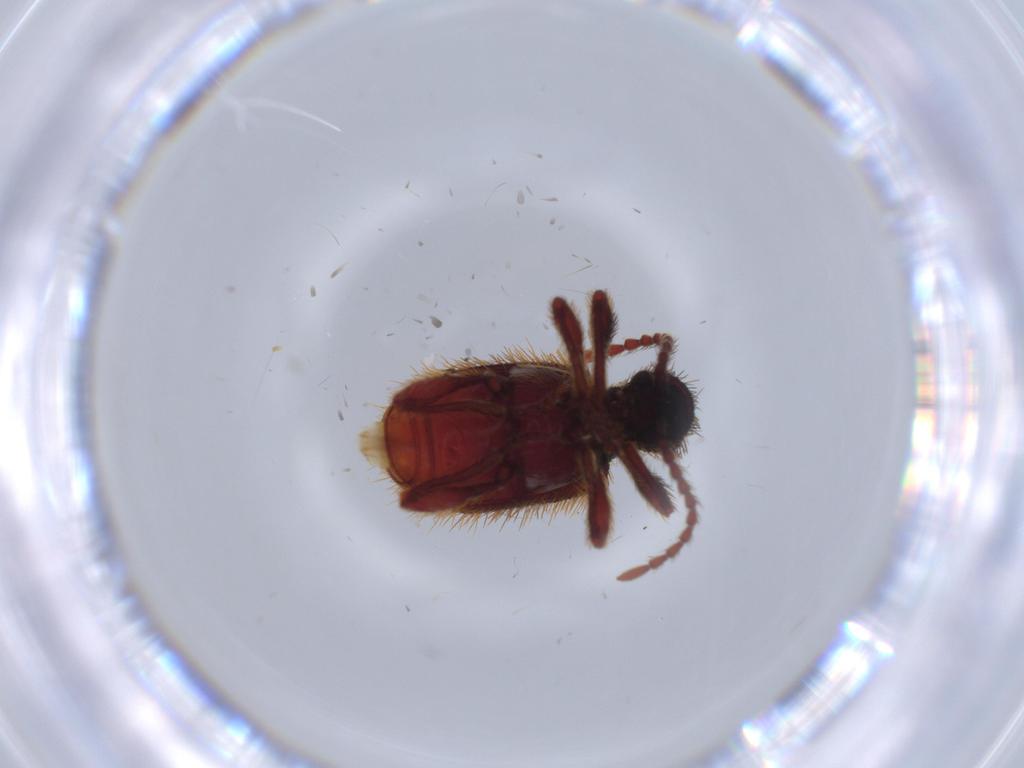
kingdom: Animalia
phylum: Arthropoda
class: Insecta
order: Coleoptera
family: Ptinidae
